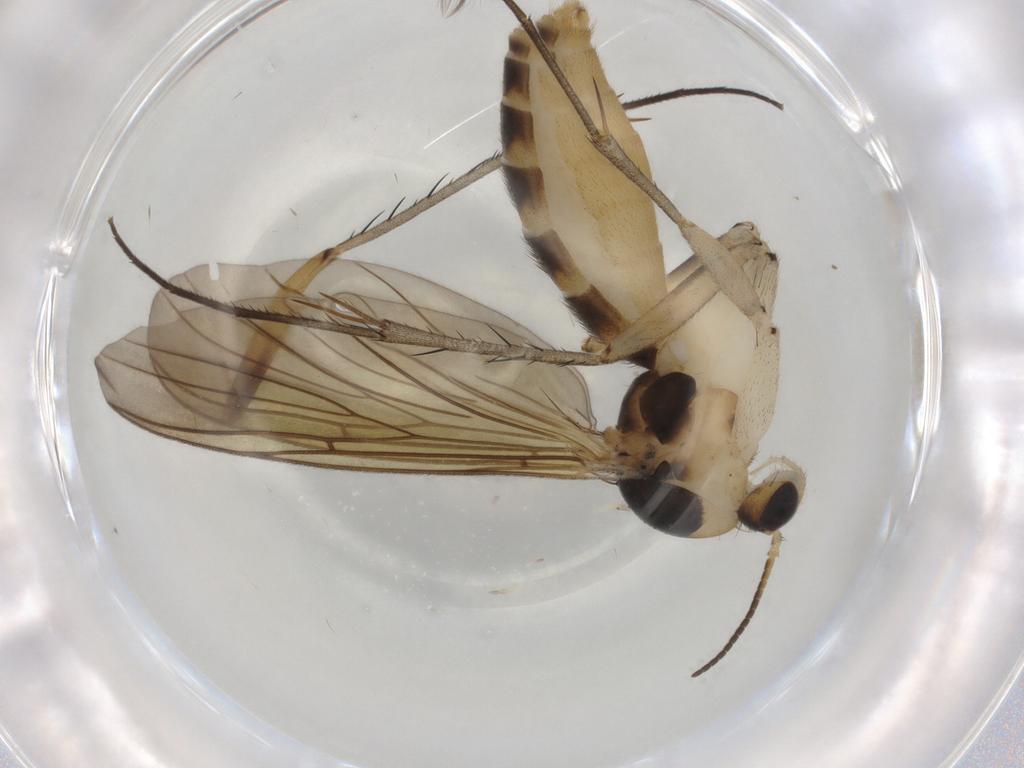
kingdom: Animalia
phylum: Arthropoda
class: Insecta
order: Diptera
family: Mycetophilidae
